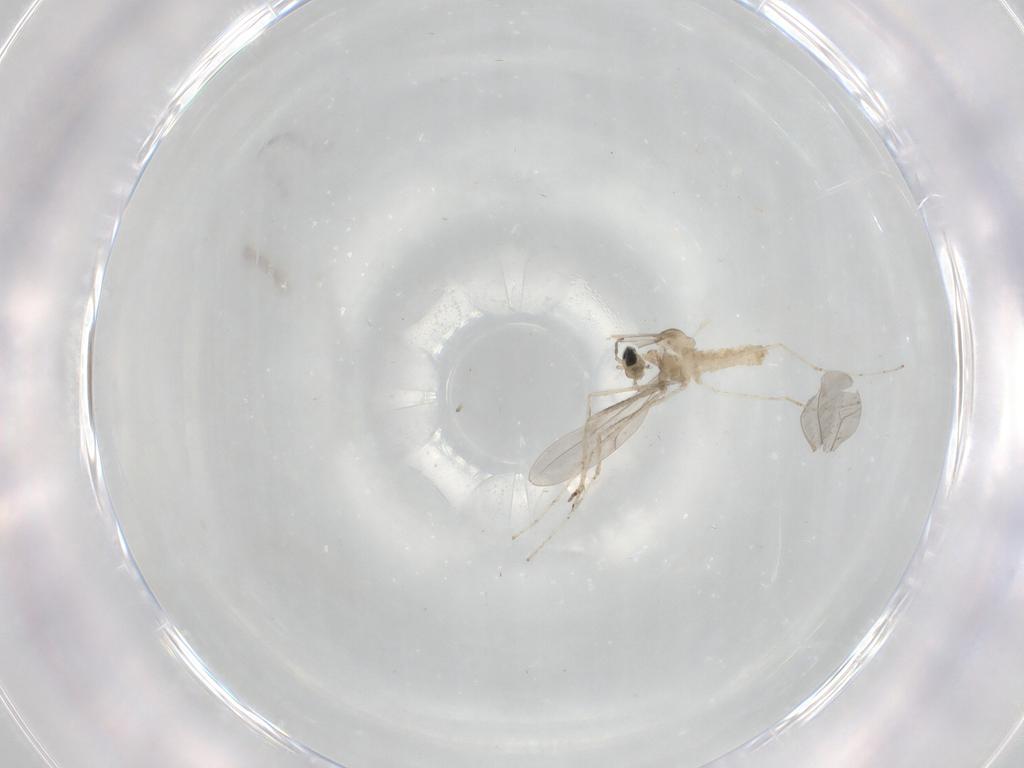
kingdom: Animalia
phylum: Arthropoda
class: Insecta
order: Diptera
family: Cecidomyiidae
